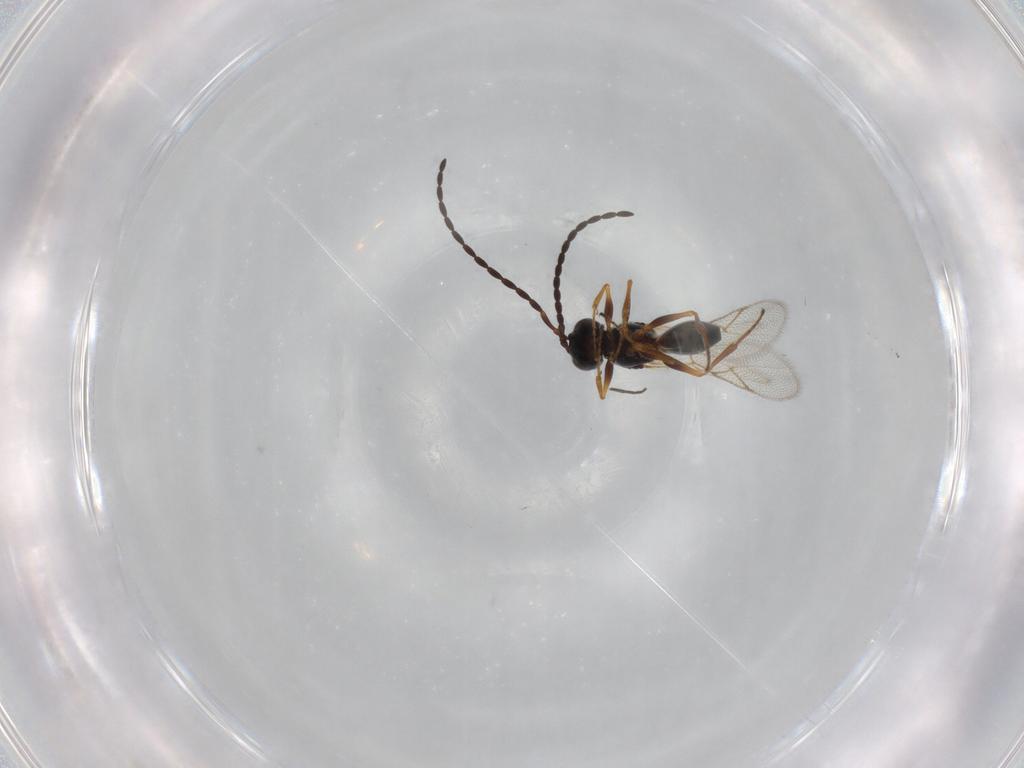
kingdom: Animalia
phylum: Arthropoda
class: Insecta
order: Hymenoptera
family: Figitidae
